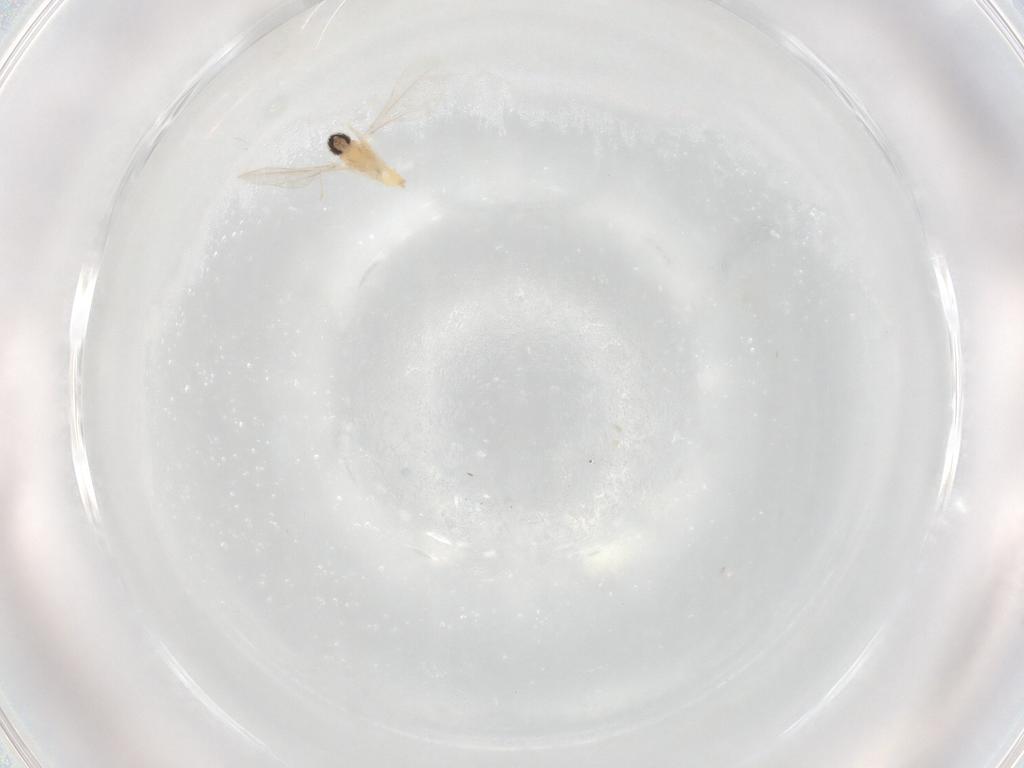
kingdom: Animalia
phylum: Arthropoda
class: Insecta
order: Diptera
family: Cecidomyiidae
